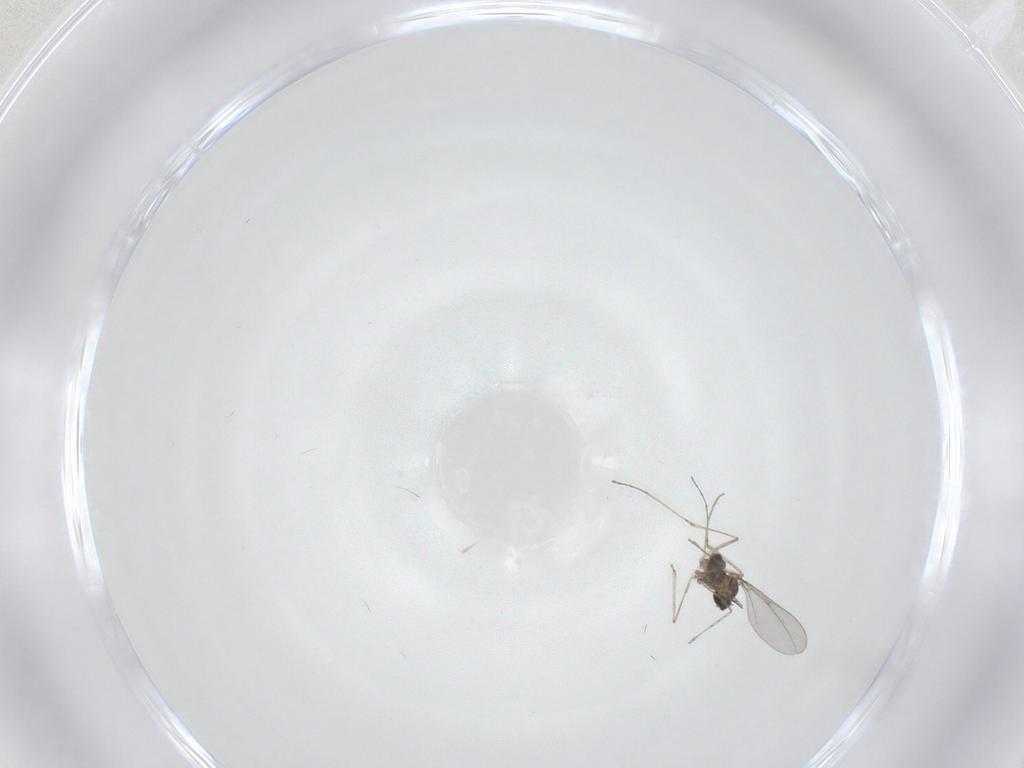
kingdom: Animalia
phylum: Arthropoda
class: Insecta
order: Diptera
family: Cecidomyiidae
